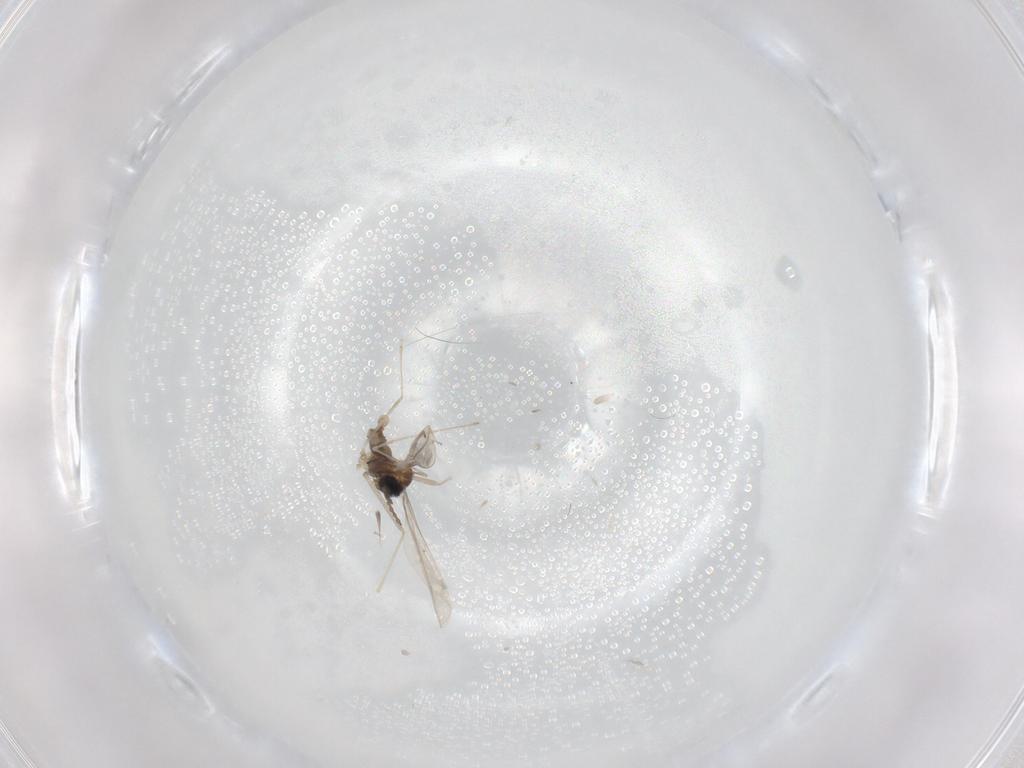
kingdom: Animalia
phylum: Arthropoda
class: Insecta
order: Diptera
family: Cecidomyiidae
